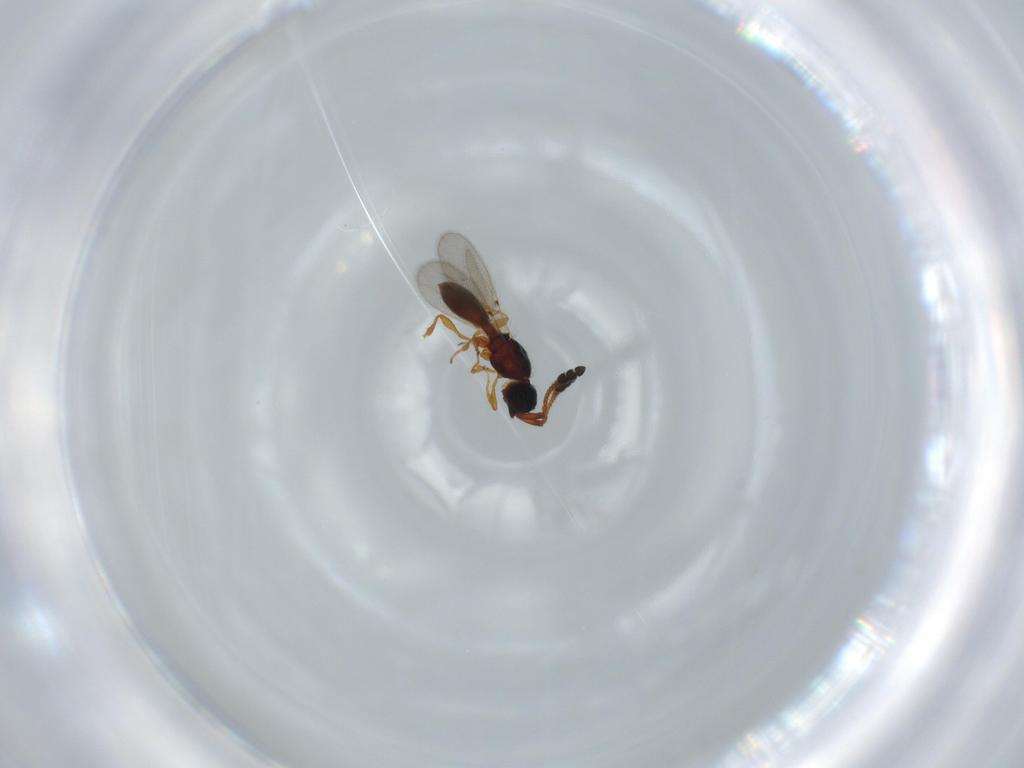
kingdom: Animalia
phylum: Arthropoda
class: Insecta
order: Hymenoptera
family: Diapriidae
